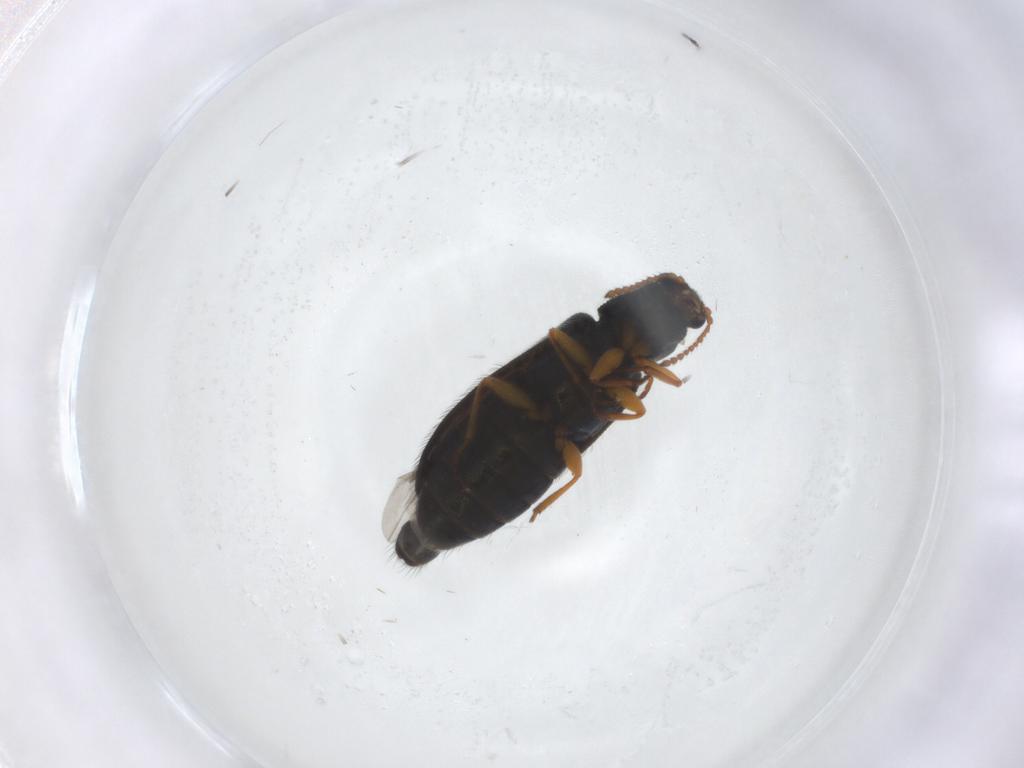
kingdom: Animalia
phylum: Arthropoda
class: Insecta
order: Coleoptera
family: Melyridae
